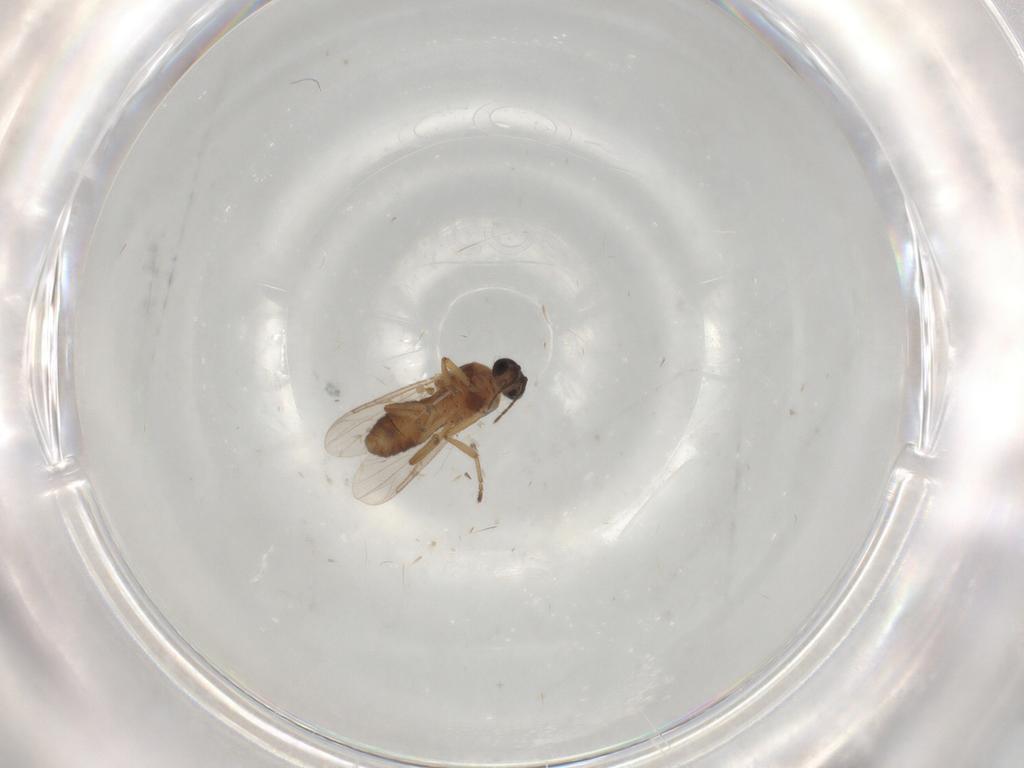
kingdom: Animalia
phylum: Arthropoda
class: Insecta
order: Diptera
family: Ceratopogonidae
